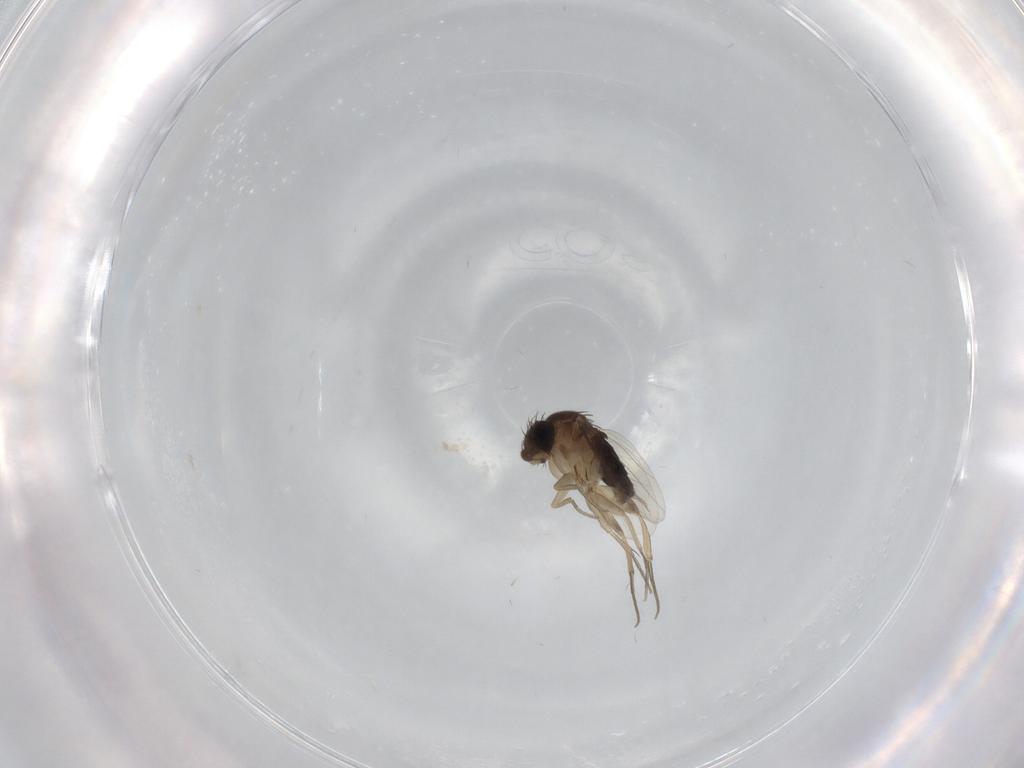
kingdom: Animalia
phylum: Arthropoda
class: Insecta
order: Diptera
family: Phoridae
